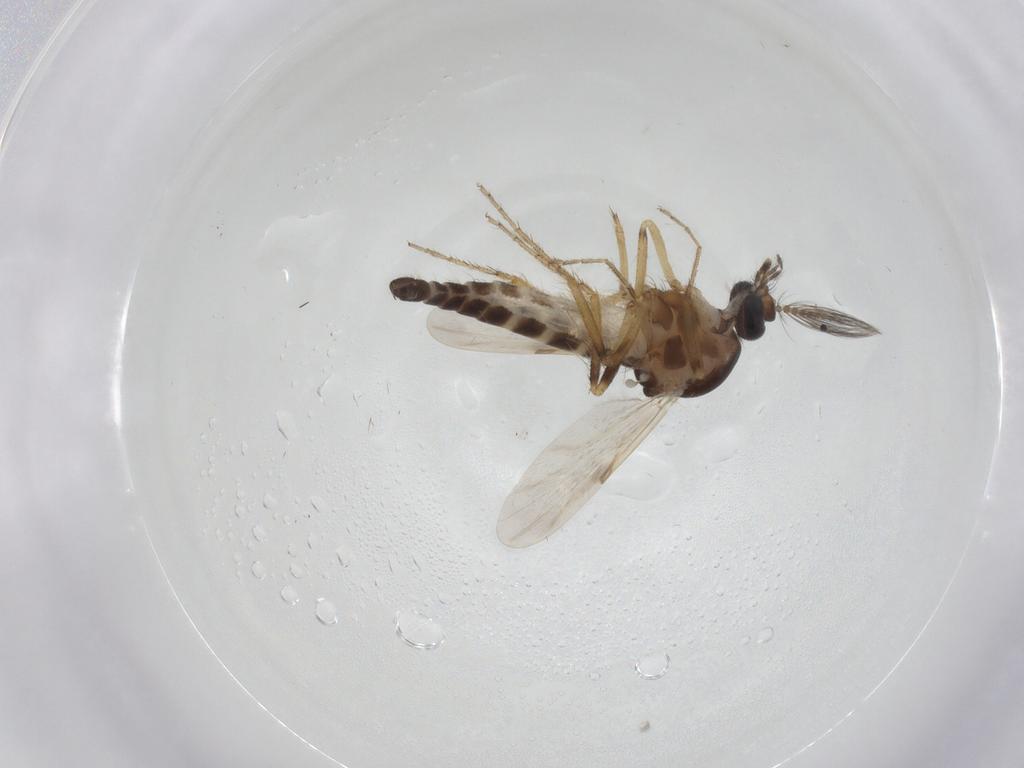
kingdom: Animalia
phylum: Arthropoda
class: Insecta
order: Diptera
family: Ceratopogonidae
